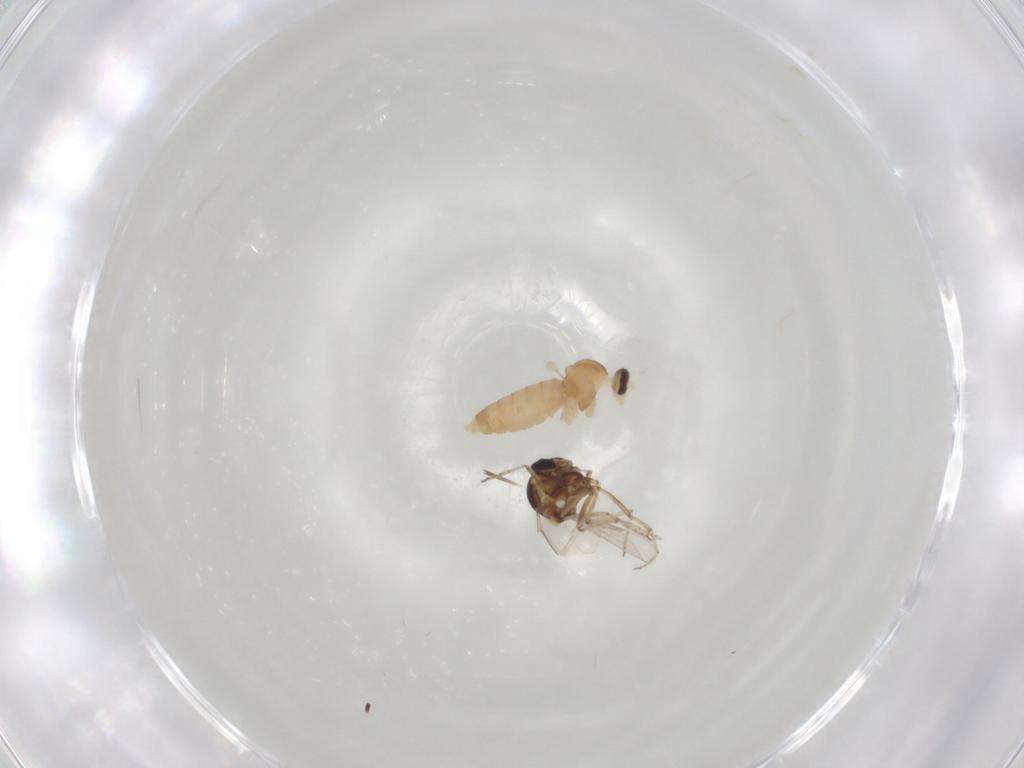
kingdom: Animalia
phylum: Arthropoda
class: Insecta
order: Lepidoptera
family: Pieridae
